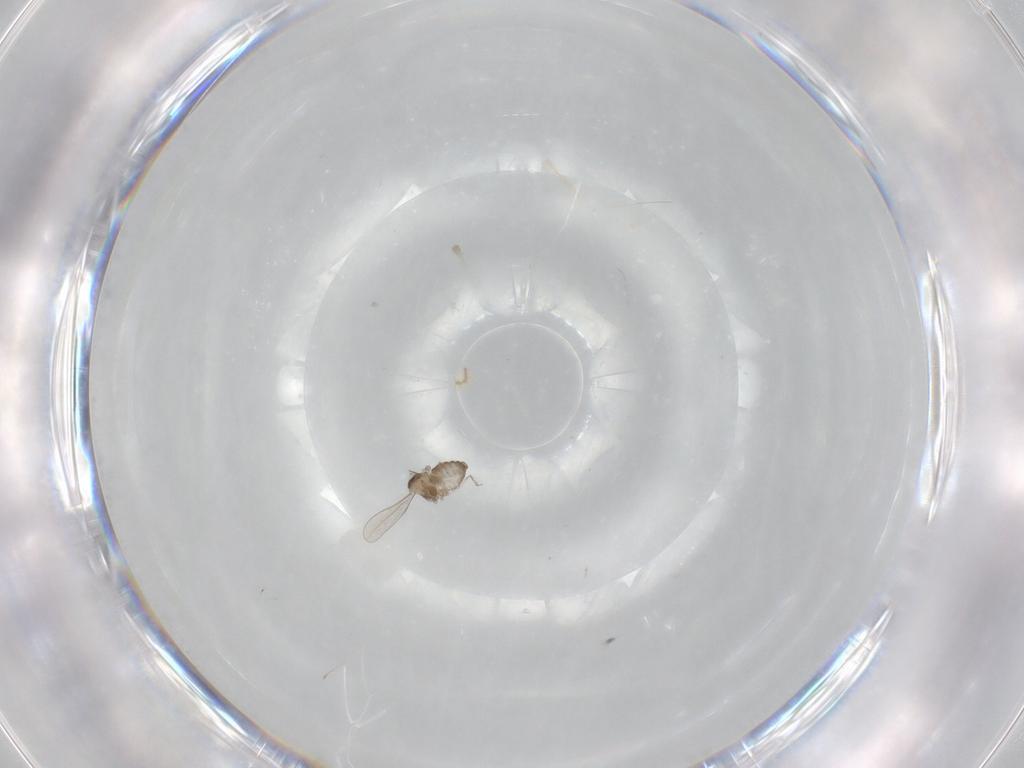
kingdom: Animalia
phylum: Arthropoda
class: Insecta
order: Diptera
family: Cecidomyiidae
